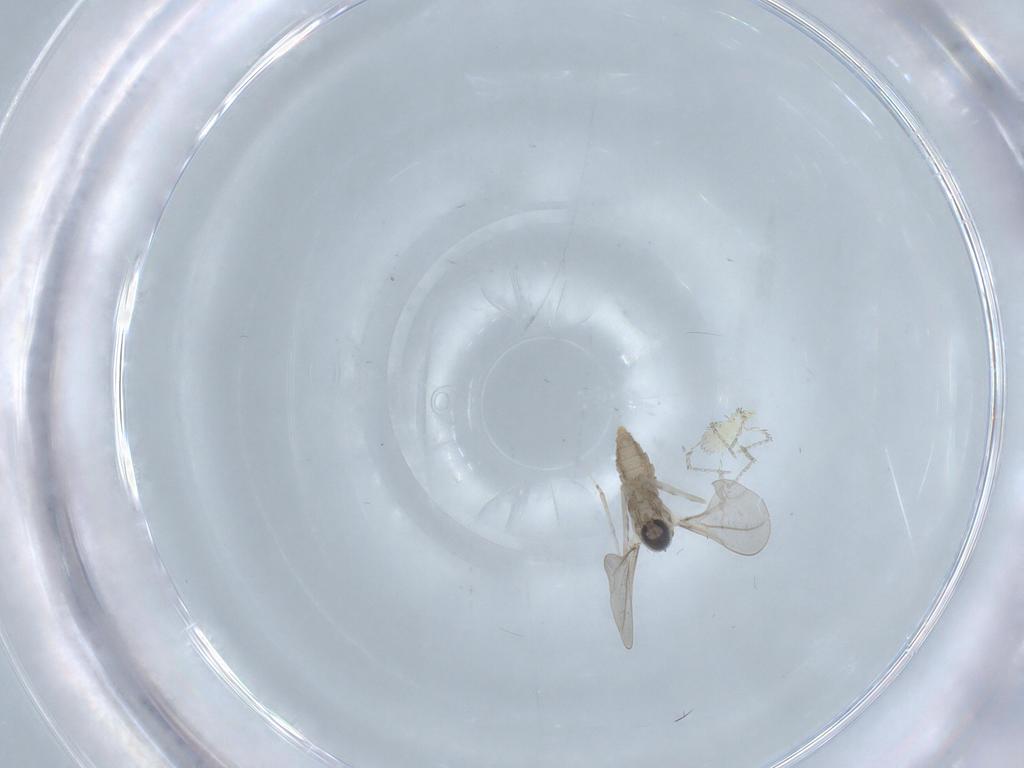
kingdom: Animalia
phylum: Arthropoda
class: Insecta
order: Diptera
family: Cecidomyiidae
